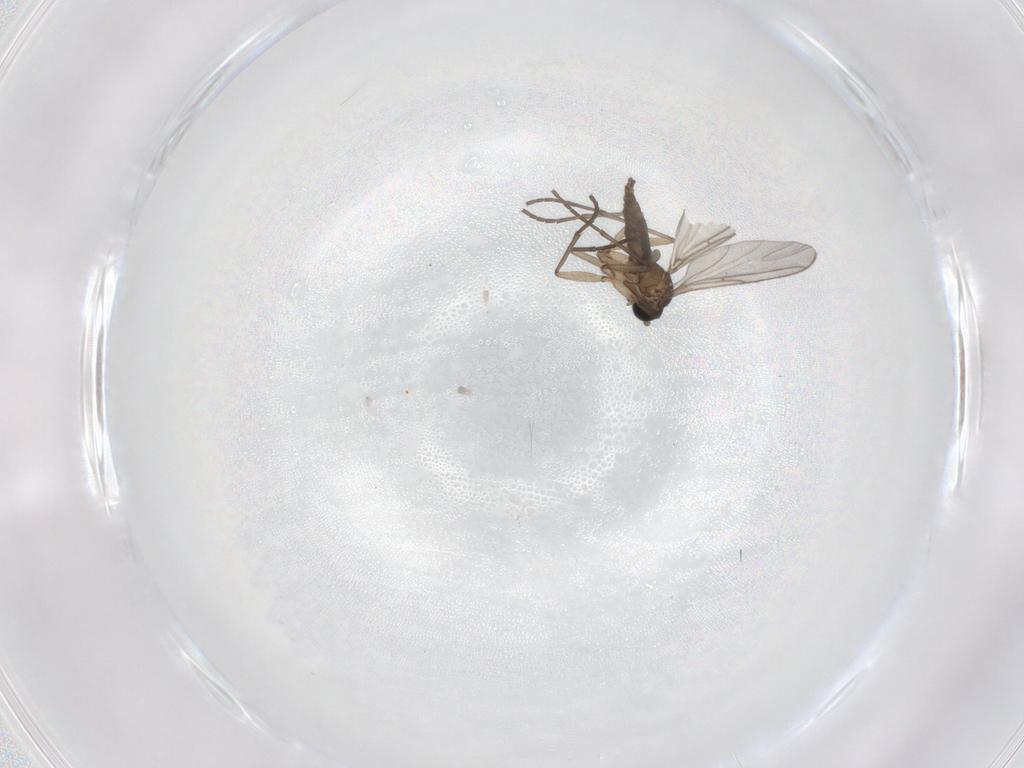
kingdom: Animalia
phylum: Arthropoda
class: Insecta
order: Diptera
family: Sciaridae
